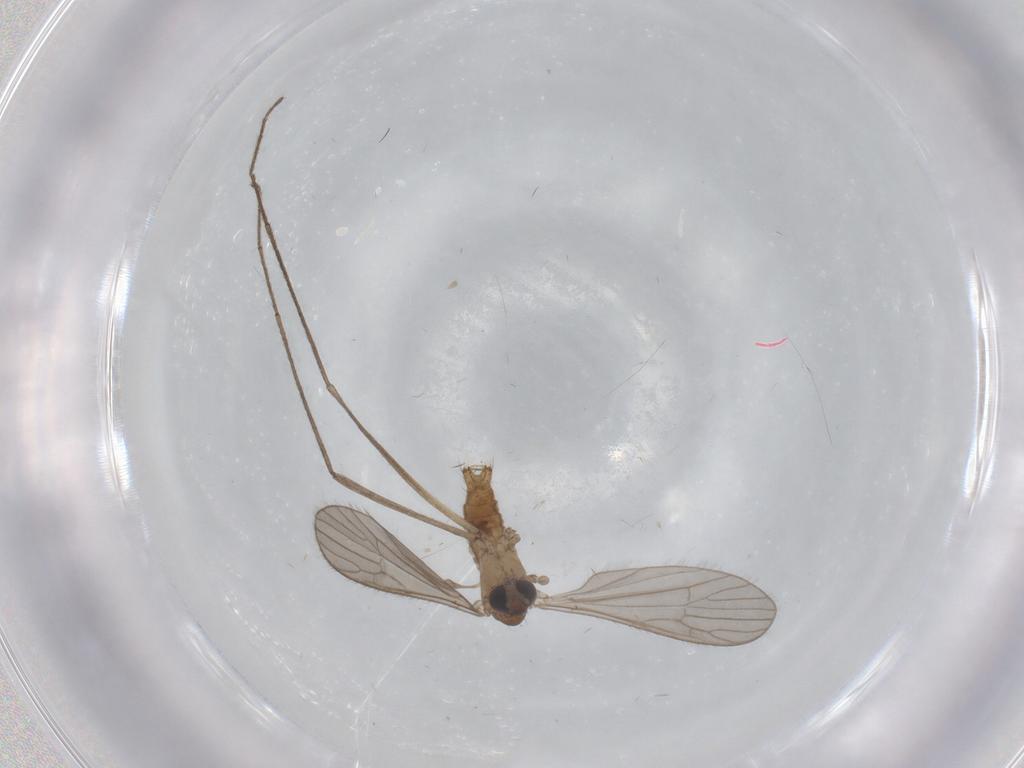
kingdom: Animalia
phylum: Arthropoda
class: Insecta
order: Diptera
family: Limoniidae
